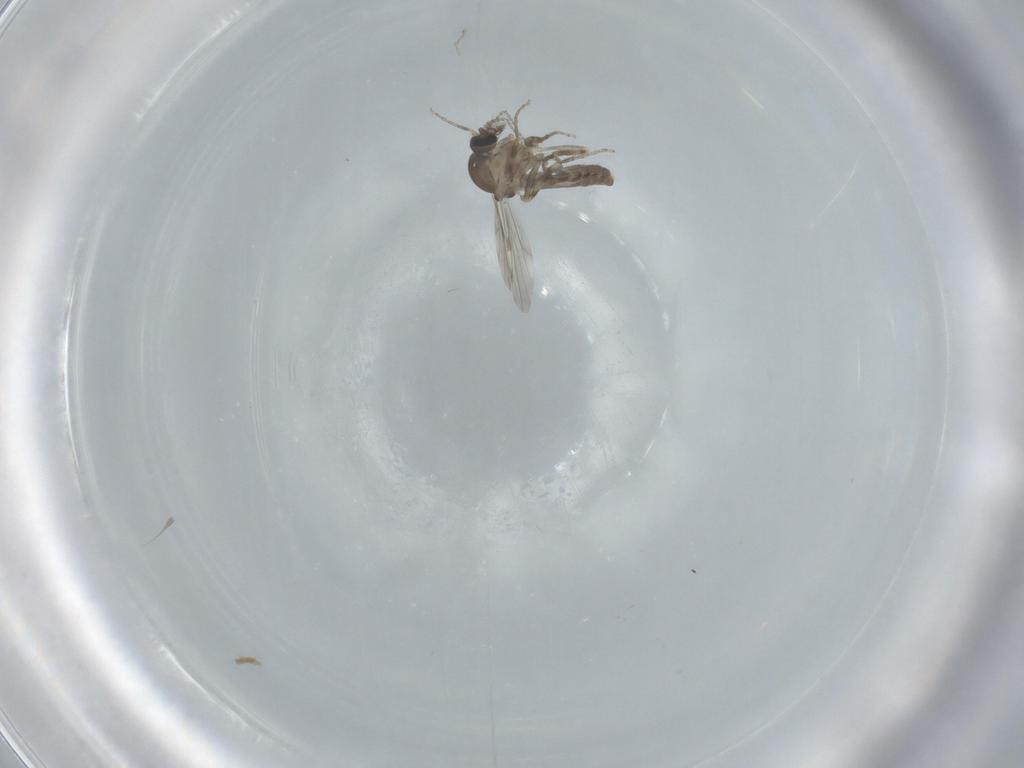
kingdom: Animalia
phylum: Arthropoda
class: Insecta
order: Diptera
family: Ceratopogonidae
